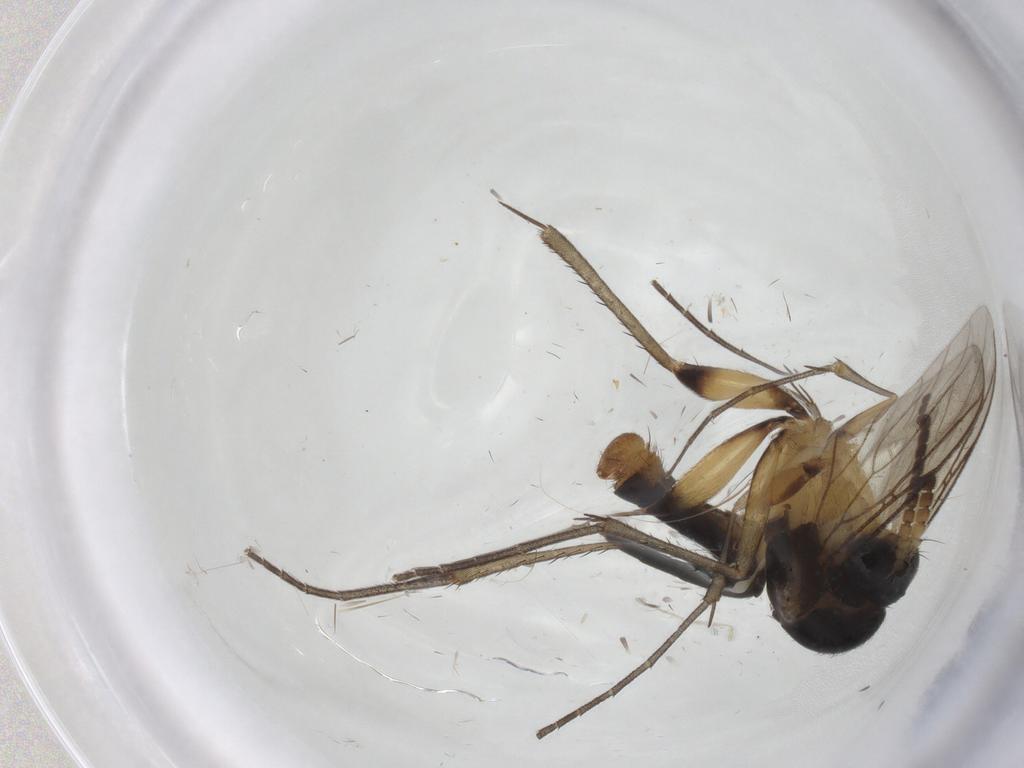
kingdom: Animalia
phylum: Arthropoda
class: Insecta
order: Diptera
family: Mycetophilidae
